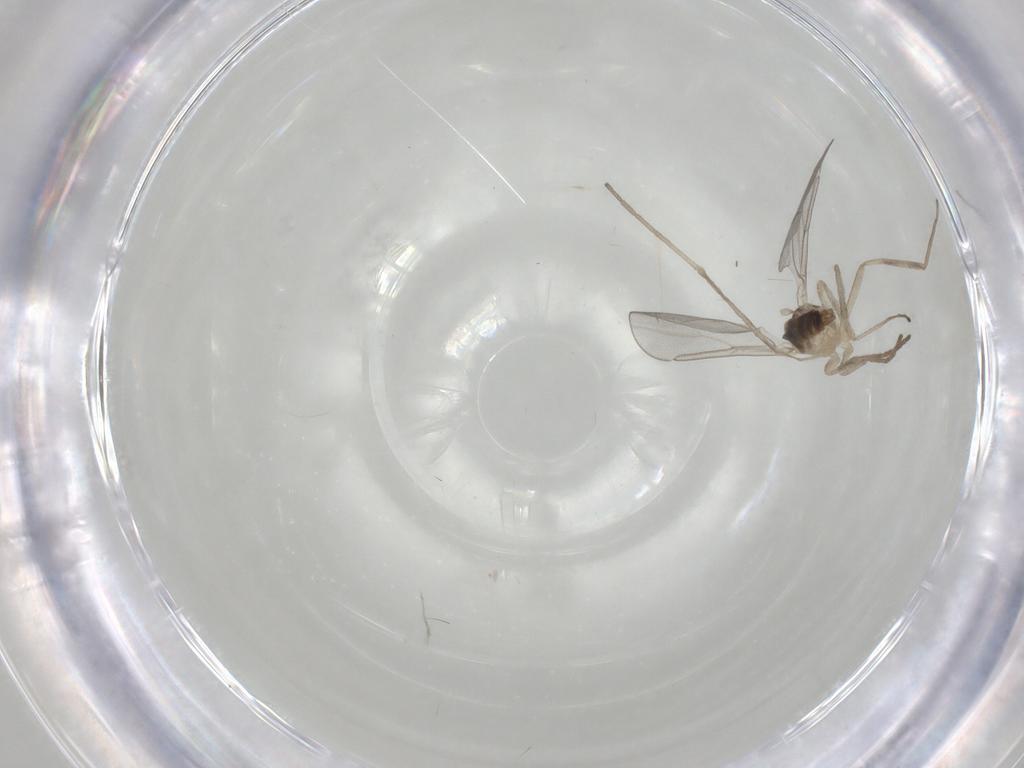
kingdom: Animalia
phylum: Arthropoda
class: Insecta
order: Diptera
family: Cecidomyiidae
